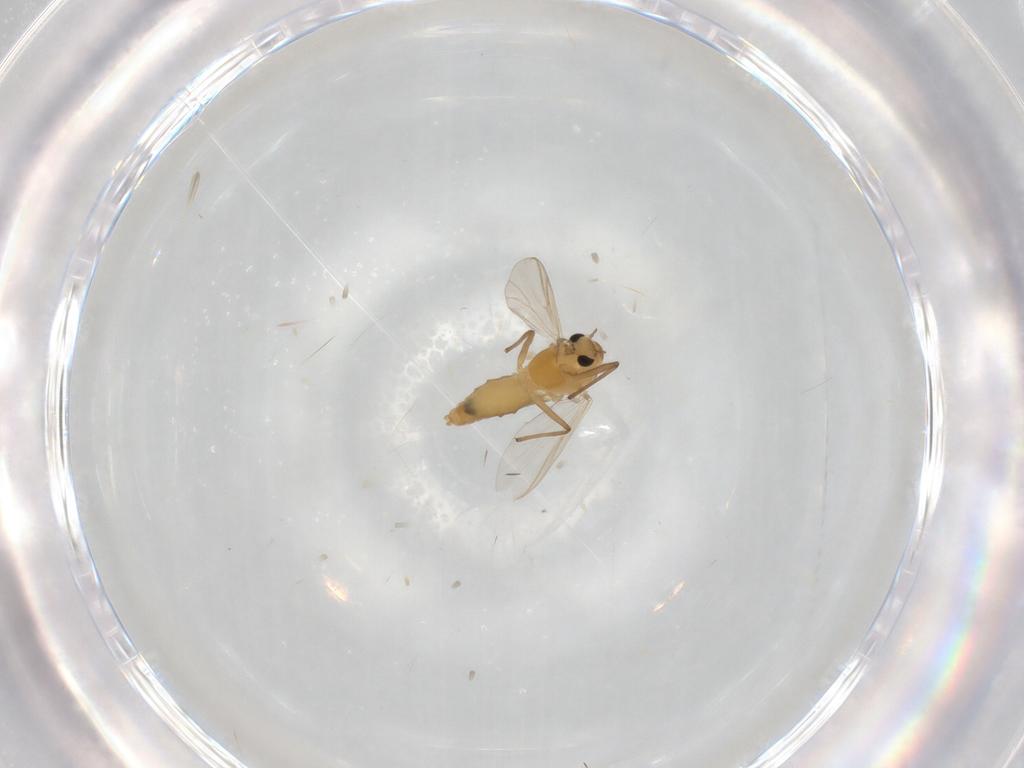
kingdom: Animalia
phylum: Arthropoda
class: Insecta
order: Diptera
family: Chironomidae
